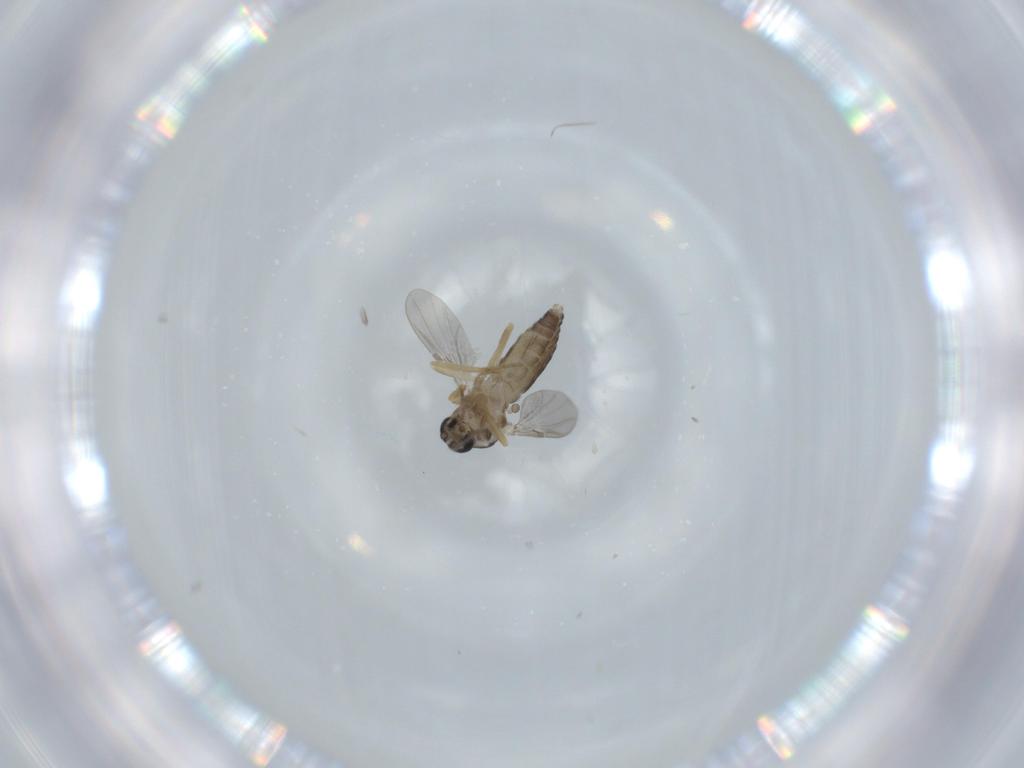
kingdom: Animalia
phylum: Arthropoda
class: Insecta
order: Diptera
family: Ceratopogonidae
